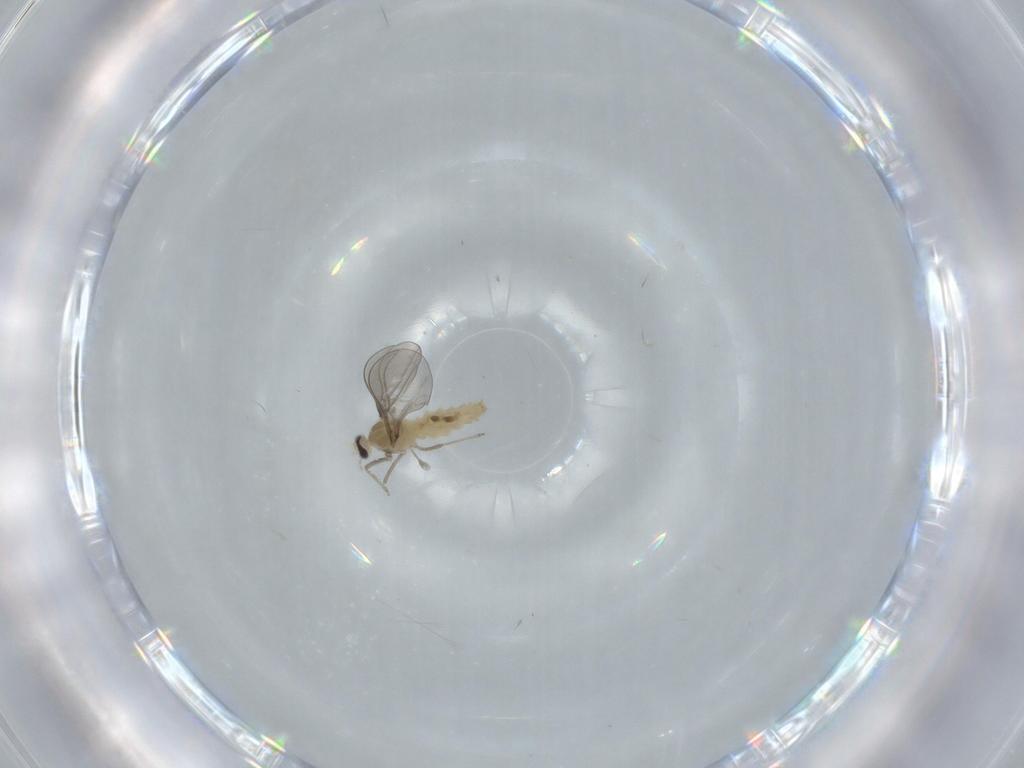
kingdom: Animalia
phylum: Arthropoda
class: Insecta
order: Diptera
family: Cecidomyiidae
